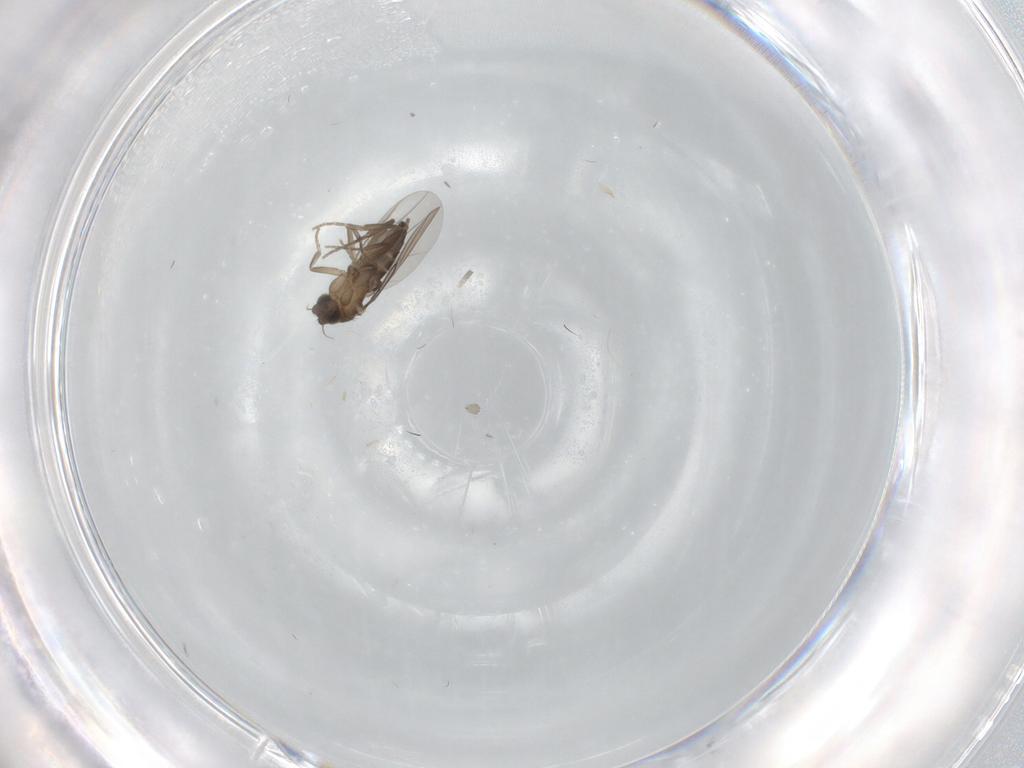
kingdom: Animalia
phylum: Arthropoda
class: Insecta
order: Diptera
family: Phoridae
